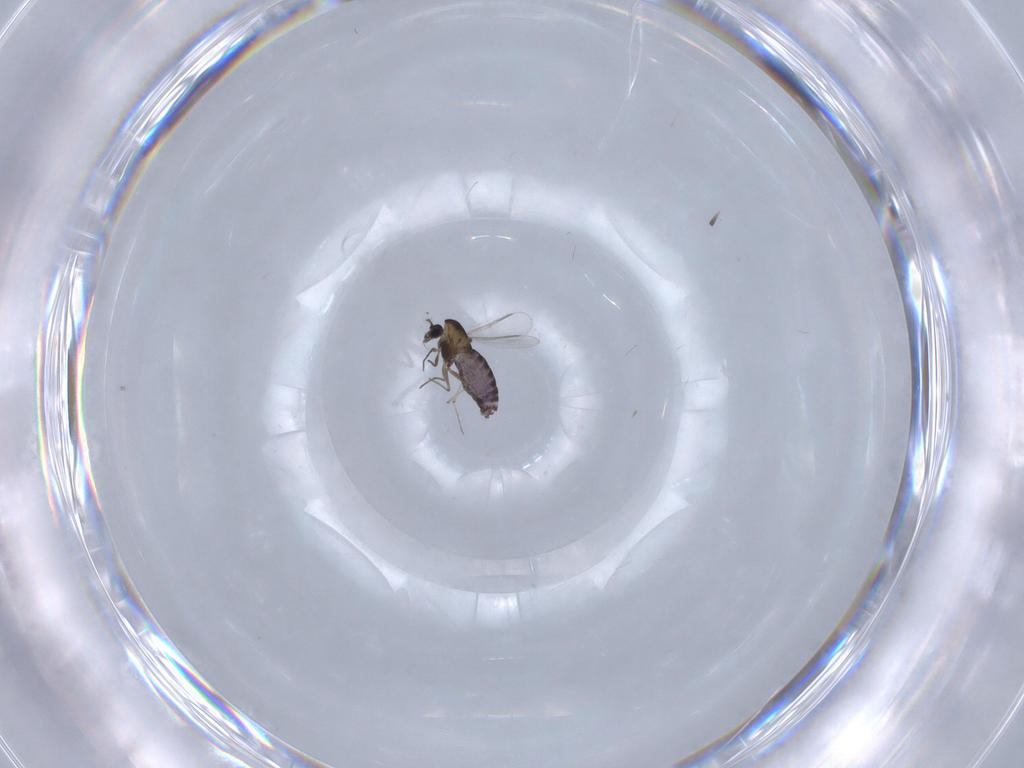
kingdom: Animalia
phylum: Arthropoda
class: Insecta
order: Diptera
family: Chironomidae
